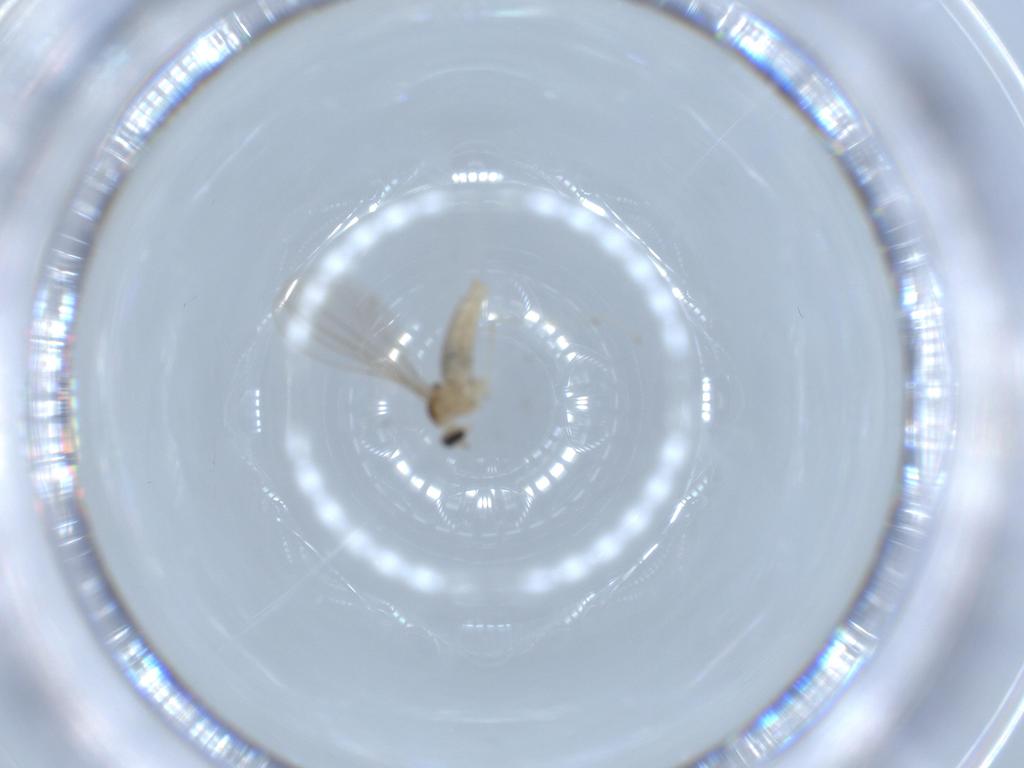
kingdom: Animalia
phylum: Arthropoda
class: Insecta
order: Diptera
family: Cecidomyiidae
